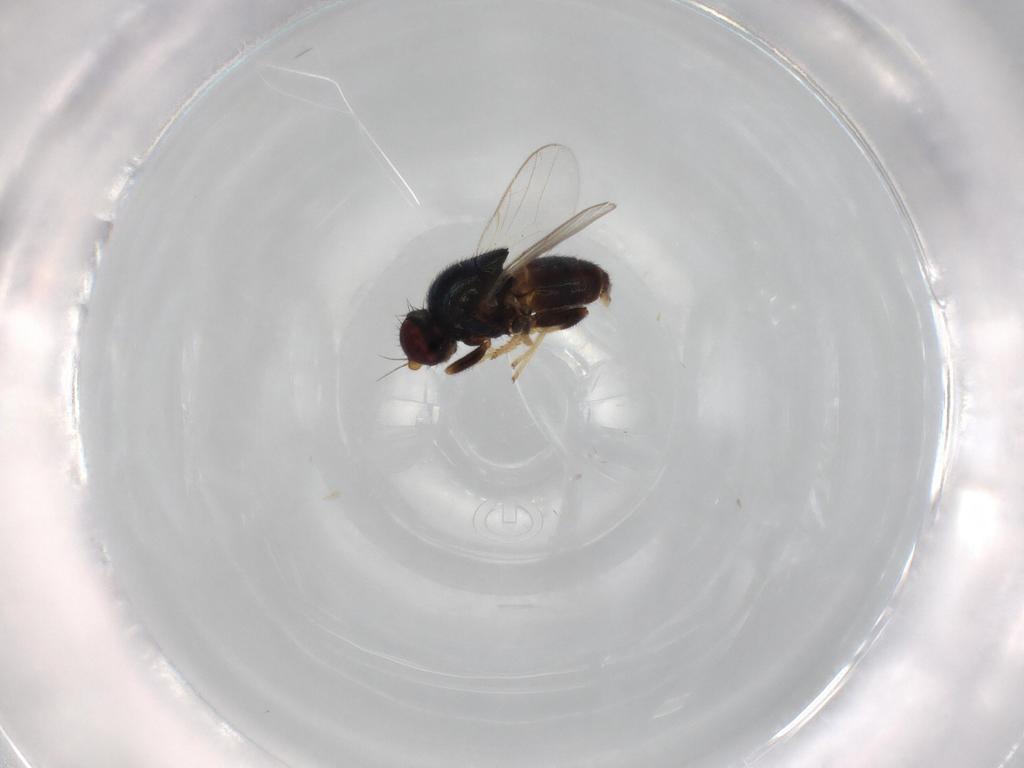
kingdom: Animalia
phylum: Arthropoda
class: Insecta
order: Diptera
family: Chloropidae
